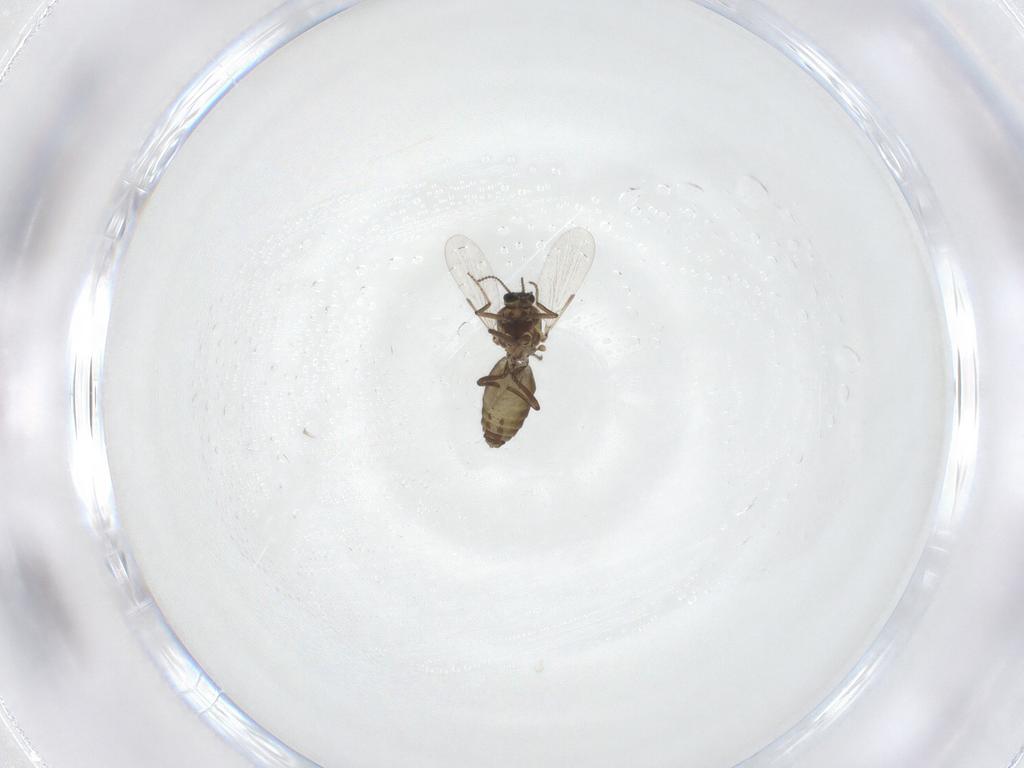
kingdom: Animalia
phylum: Arthropoda
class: Insecta
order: Diptera
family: Ceratopogonidae
